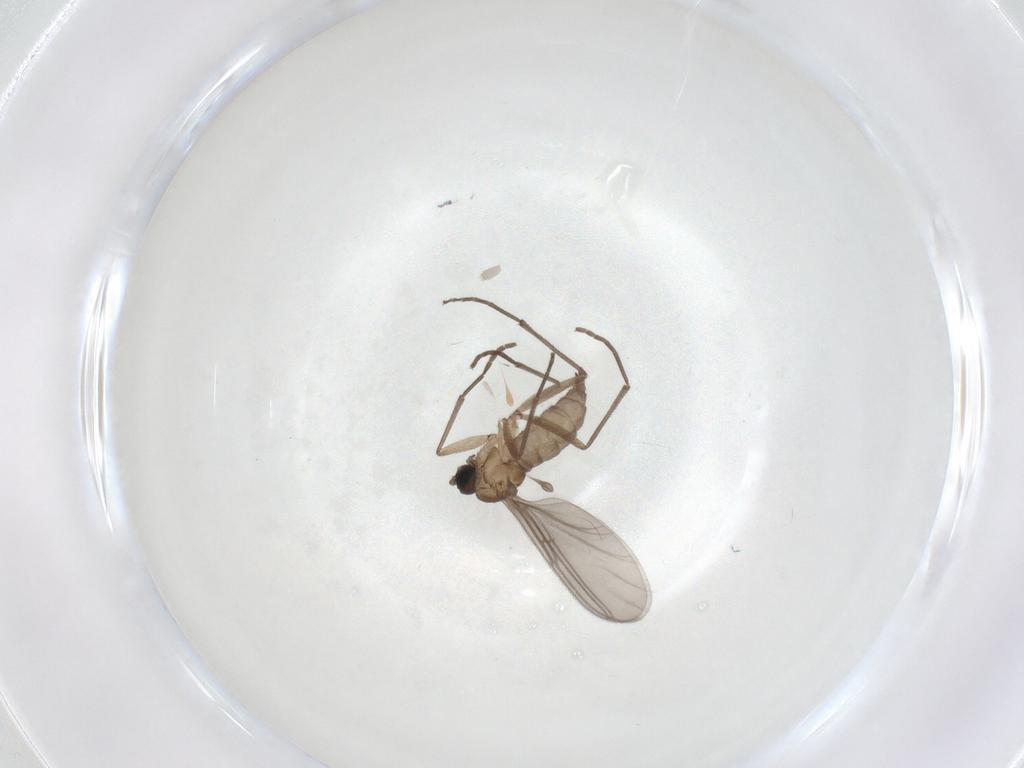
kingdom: Animalia
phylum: Arthropoda
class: Insecta
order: Diptera
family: Sciaridae
